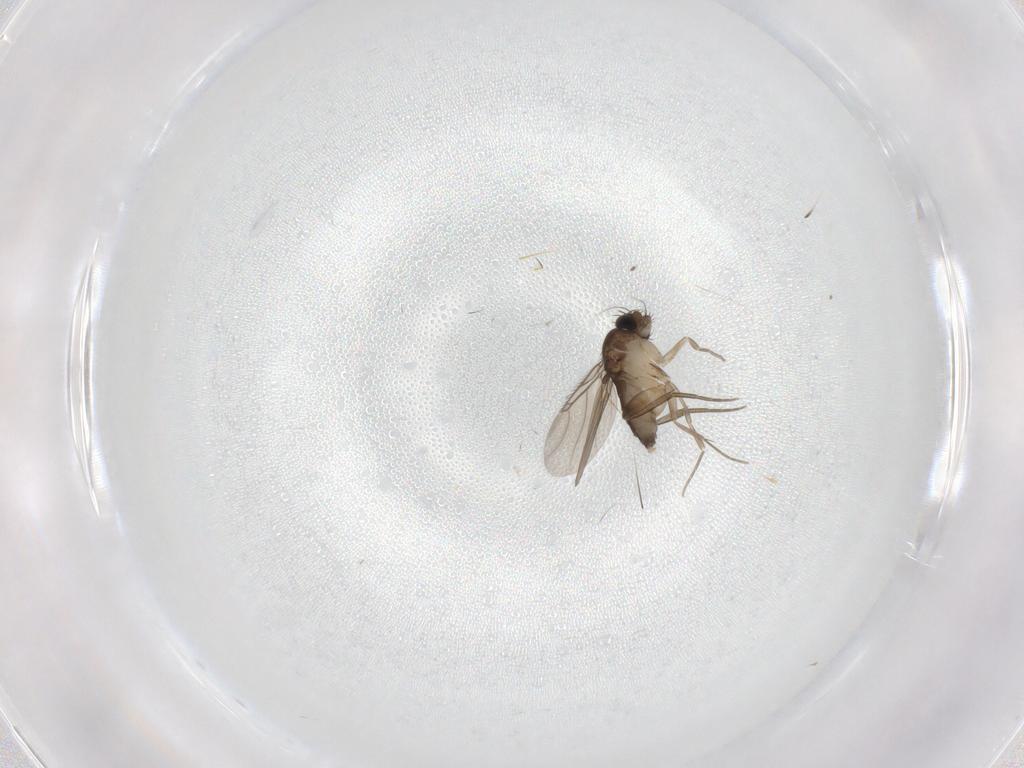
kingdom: Animalia
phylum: Arthropoda
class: Insecta
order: Diptera
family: Phoridae
